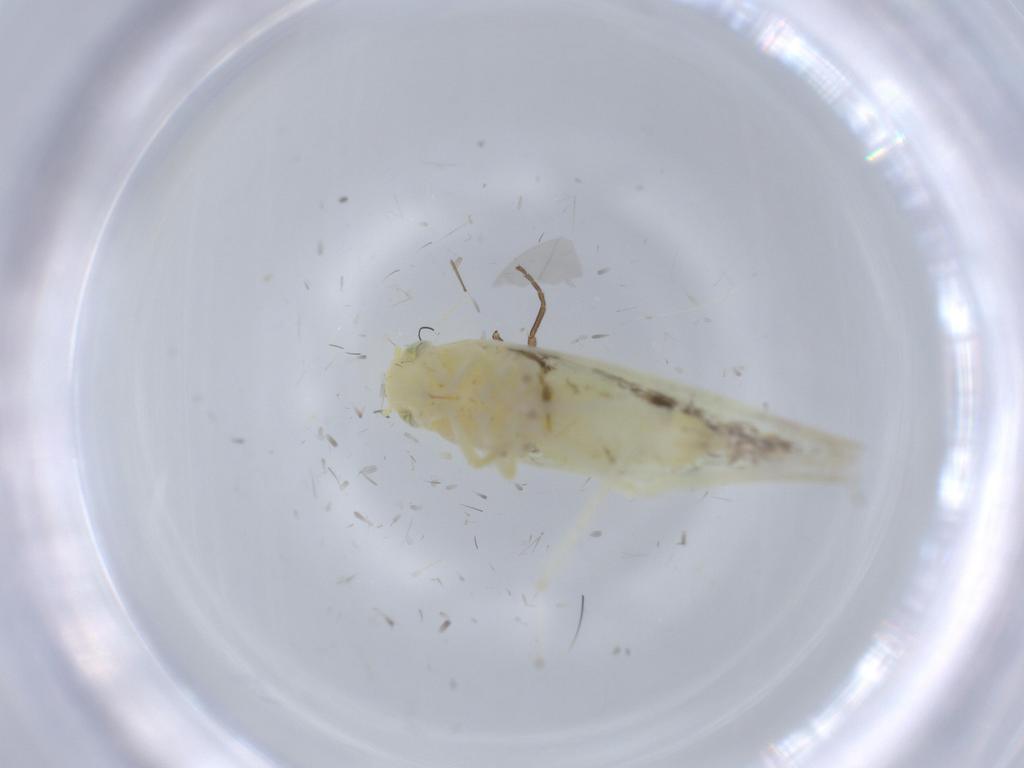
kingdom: Animalia
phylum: Arthropoda
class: Insecta
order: Hemiptera
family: Cicadellidae
